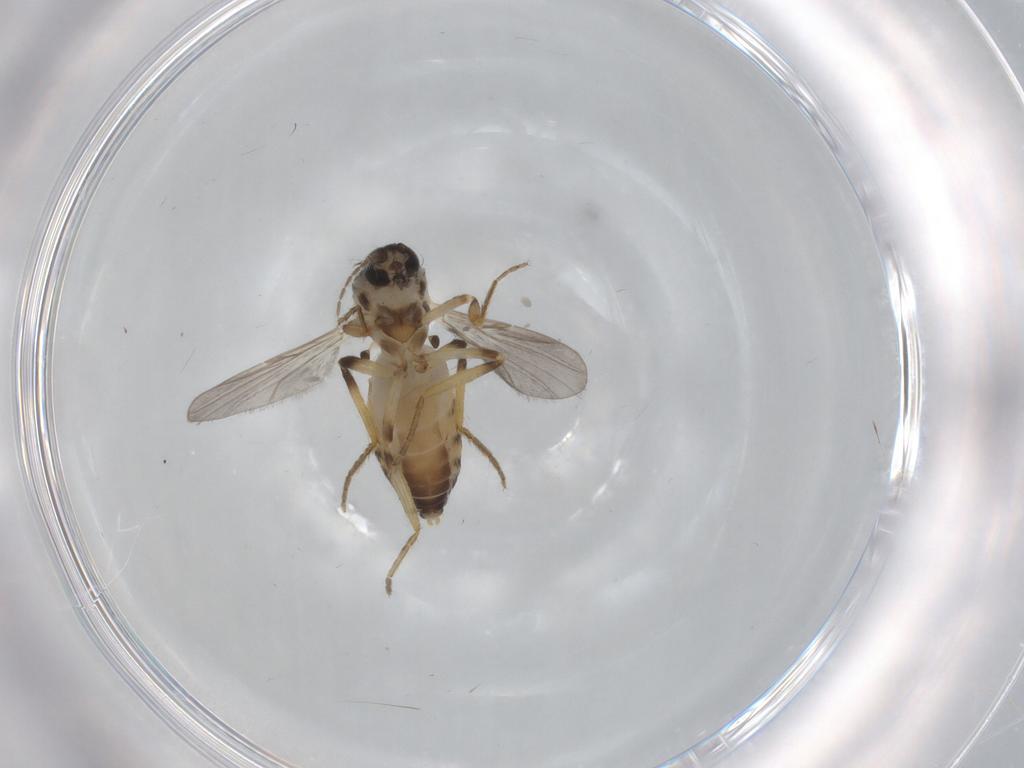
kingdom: Animalia
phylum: Arthropoda
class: Insecta
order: Diptera
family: Ceratopogonidae
